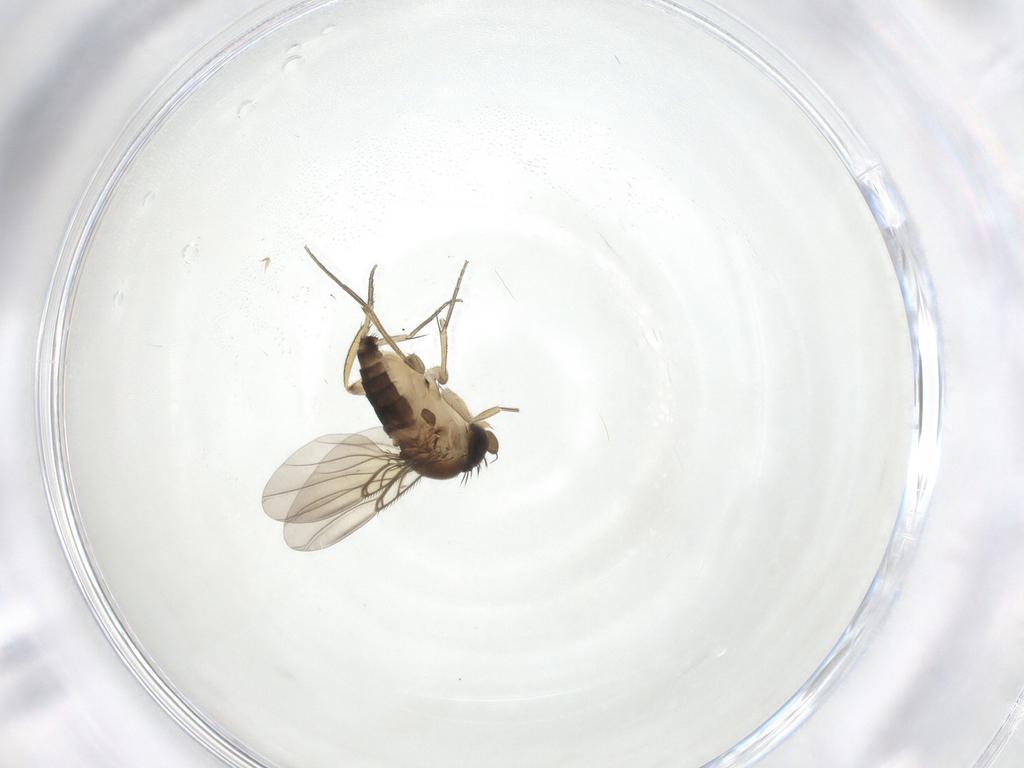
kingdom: Animalia
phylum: Arthropoda
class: Insecta
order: Diptera
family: Phoridae
